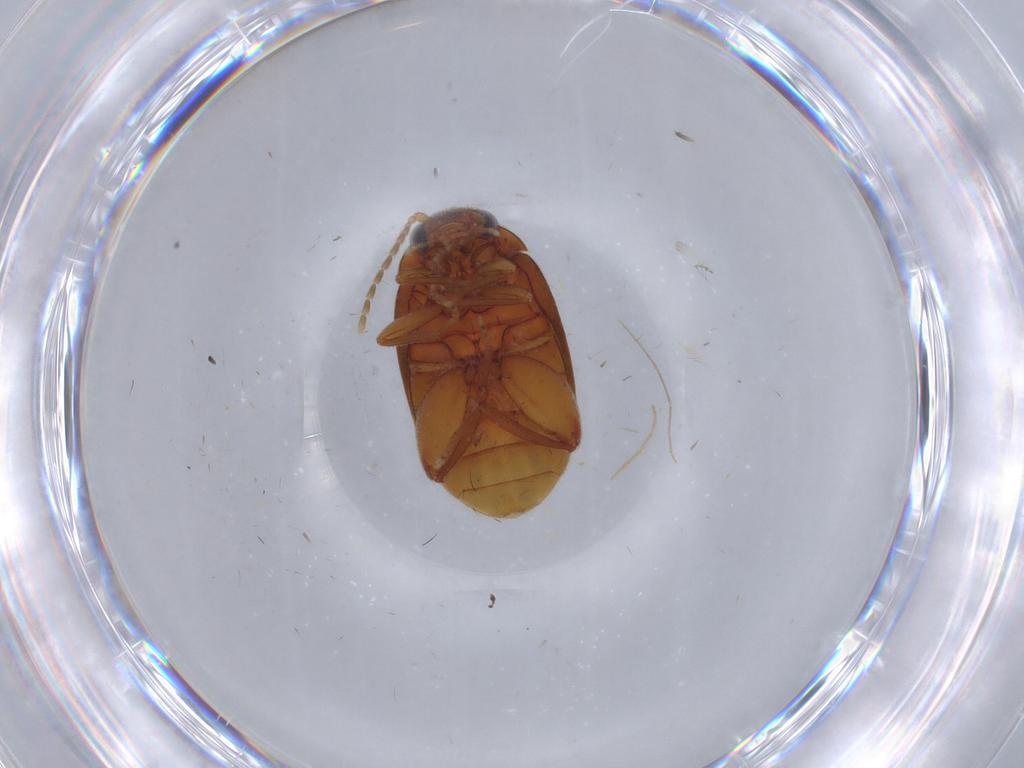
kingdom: Animalia
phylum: Arthropoda
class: Insecta
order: Coleoptera
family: Scirtidae
